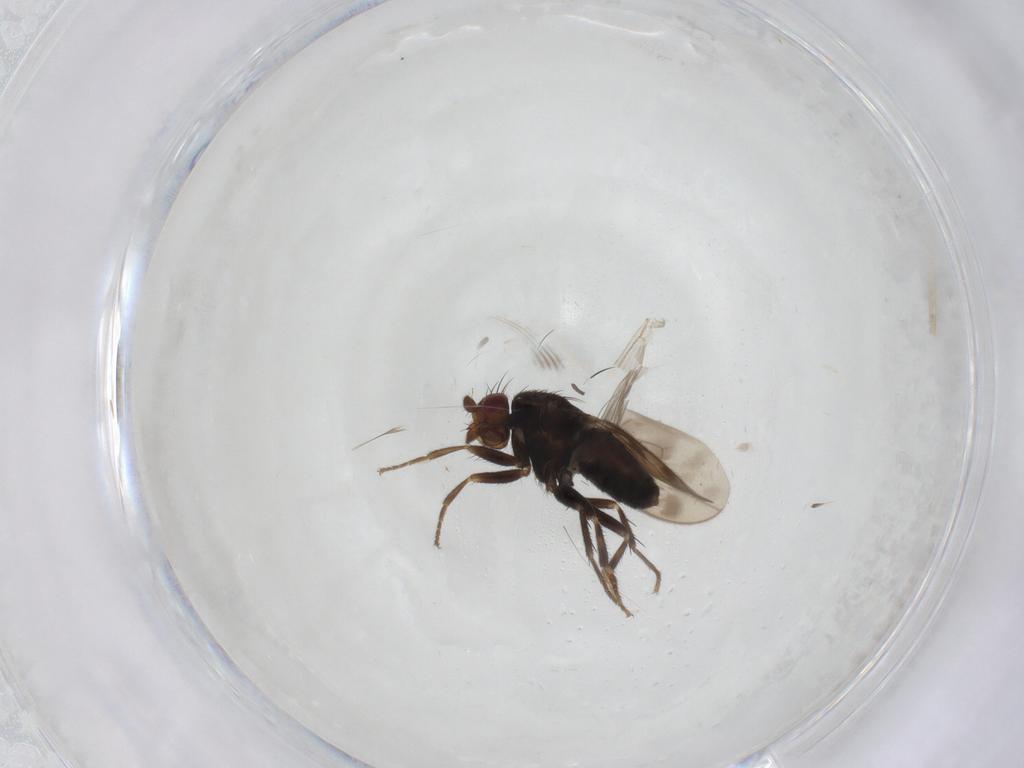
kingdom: Animalia
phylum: Arthropoda
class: Insecta
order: Diptera
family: Sphaeroceridae
